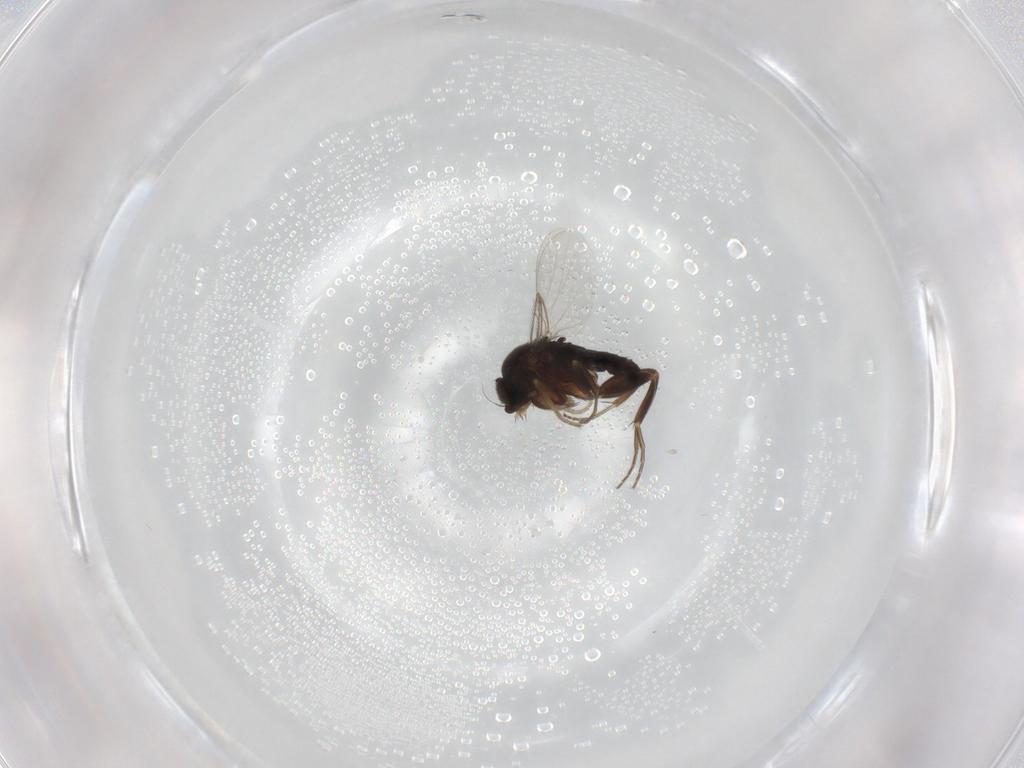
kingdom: Animalia
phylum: Arthropoda
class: Insecta
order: Diptera
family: Phoridae
